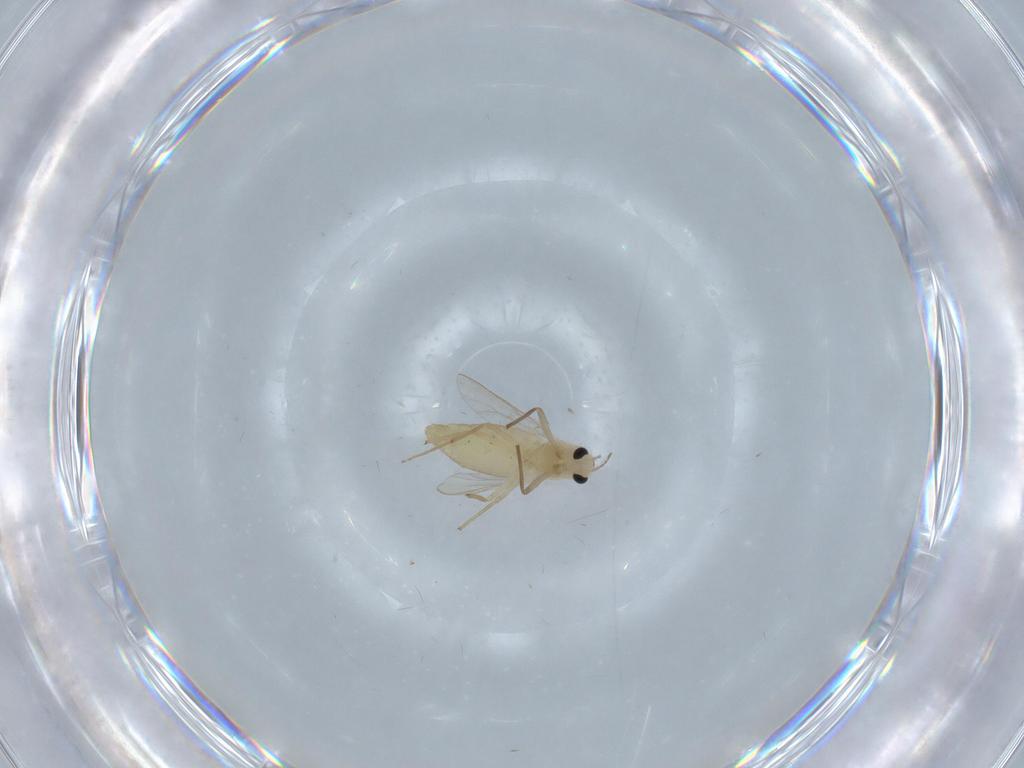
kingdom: Animalia
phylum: Arthropoda
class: Insecta
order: Diptera
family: Chironomidae
